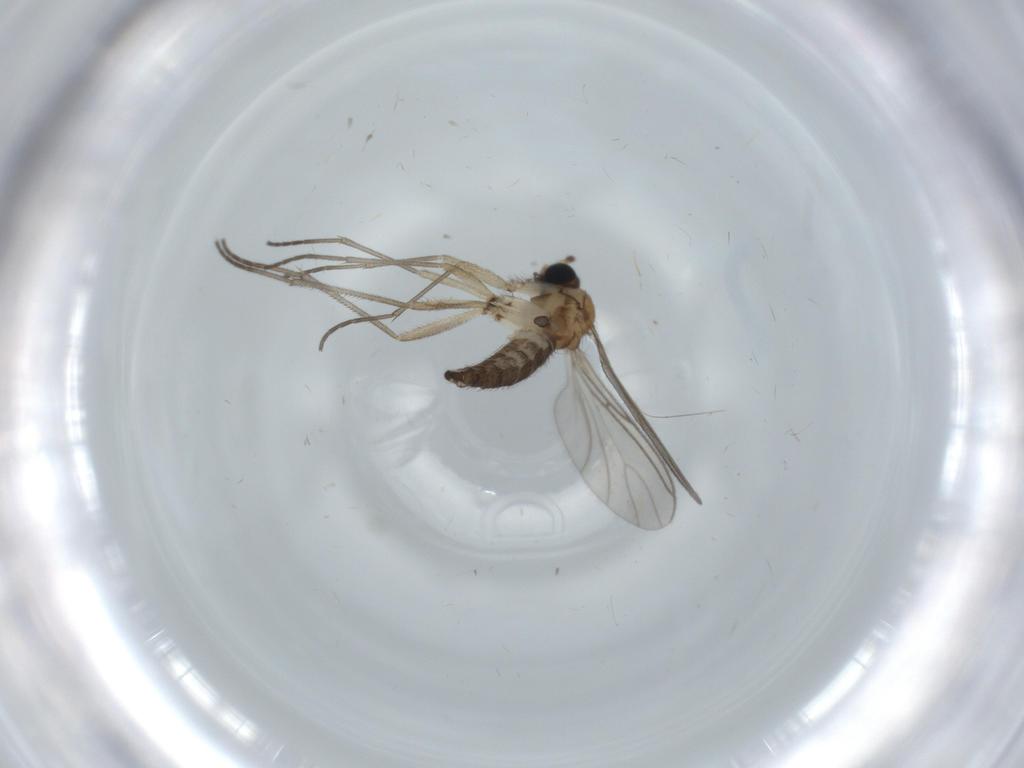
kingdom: Animalia
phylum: Arthropoda
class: Insecta
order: Diptera
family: Sciaridae
